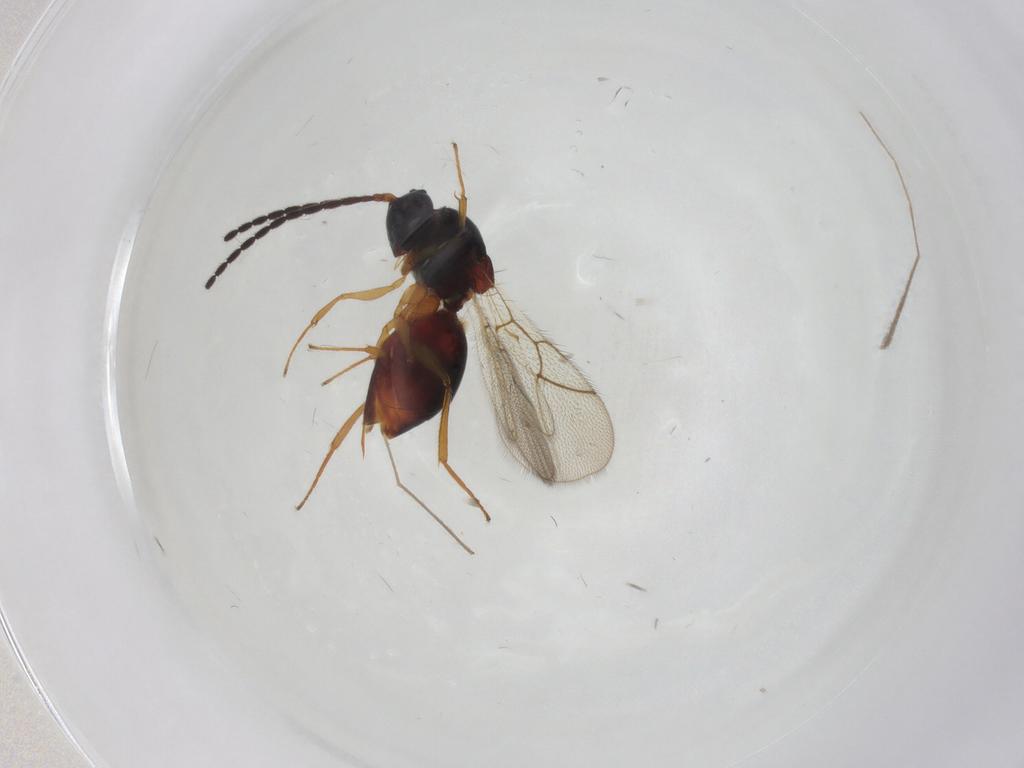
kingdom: Animalia
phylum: Arthropoda
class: Insecta
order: Hymenoptera
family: Figitidae
